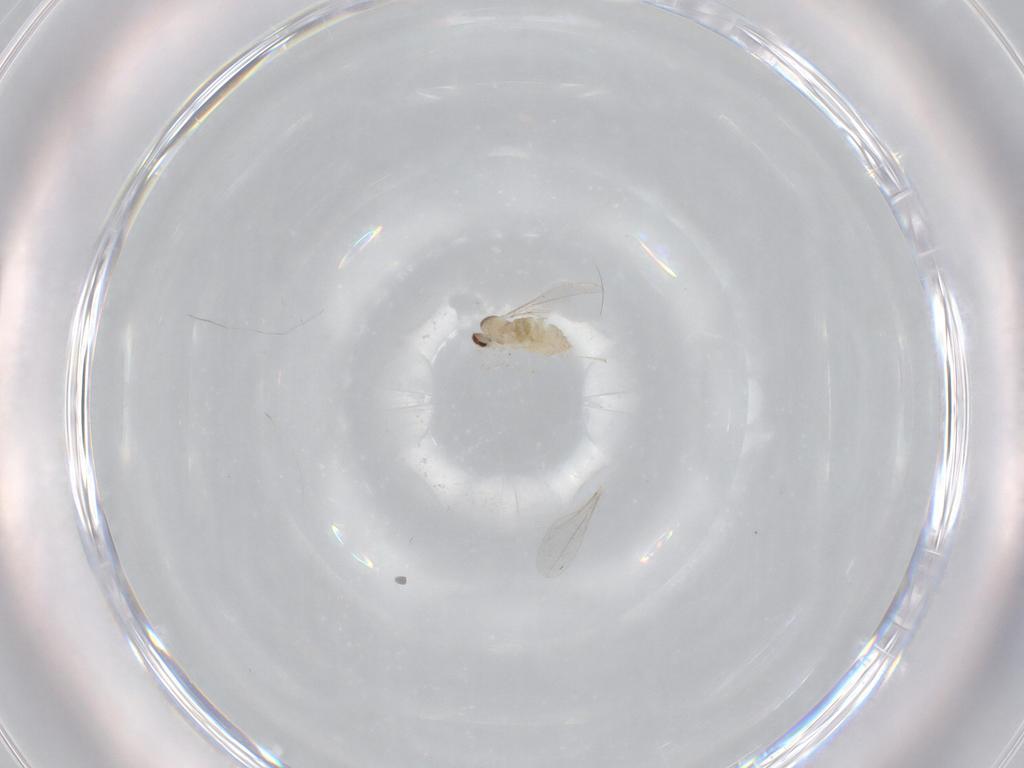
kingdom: Animalia
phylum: Arthropoda
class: Insecta
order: Diptera
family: Cecidomyiidae
